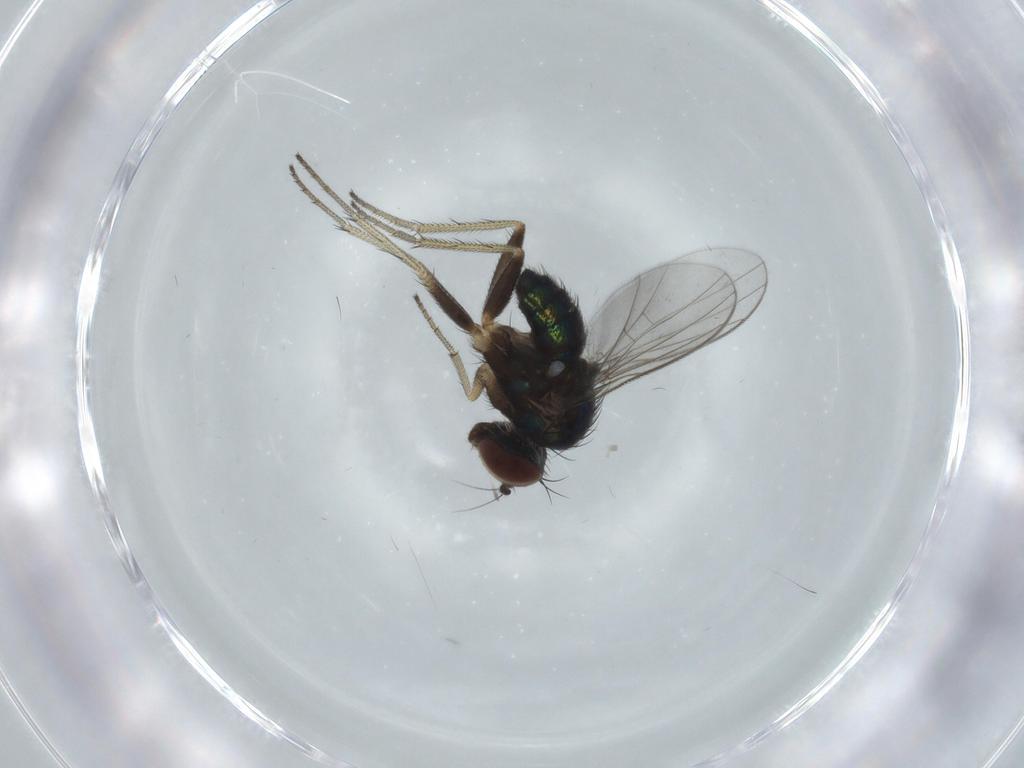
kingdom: Animalia
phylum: Arthropoda
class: Insecta
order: Diptera
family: Dolichopodidae
